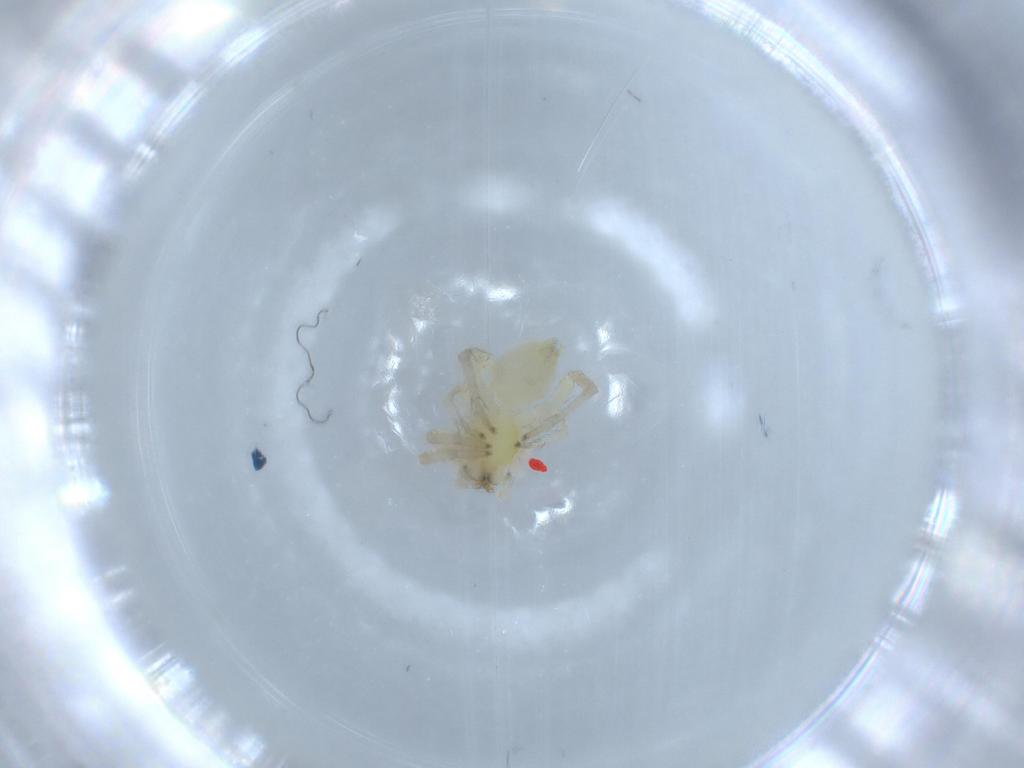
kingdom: Animalia
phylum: Arthropoda
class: Arachnida
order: Araneae
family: Anyphaenidae
